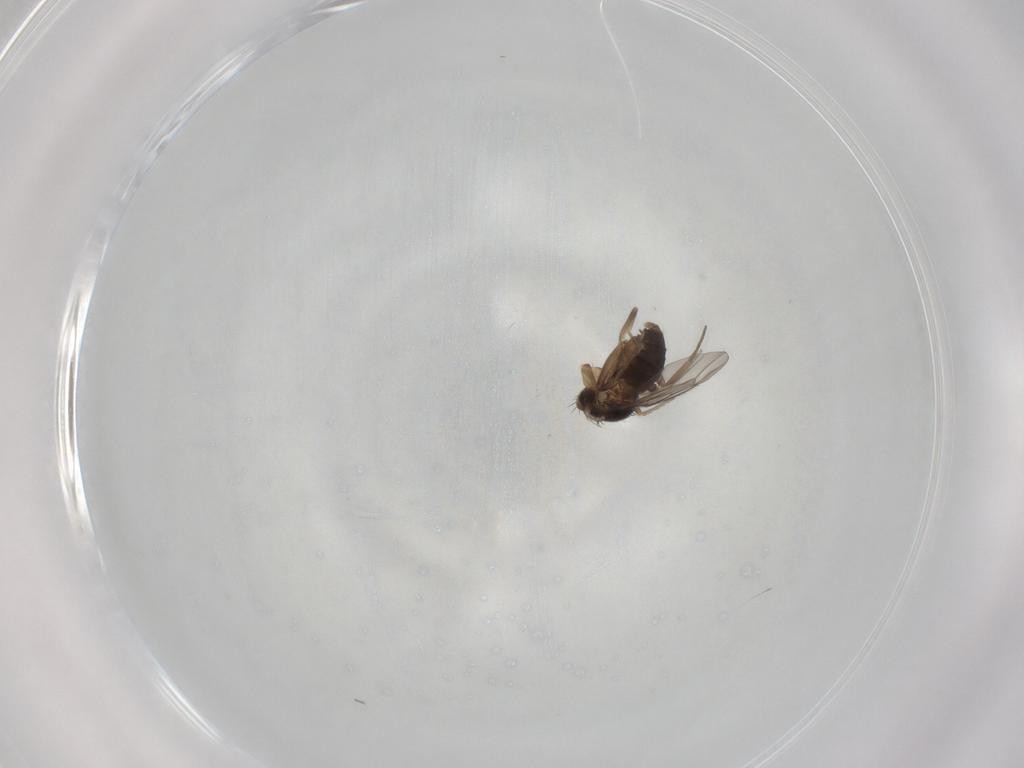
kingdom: Animalia
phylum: Arthropoda
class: Insecta
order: Diptera
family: Phoridae
